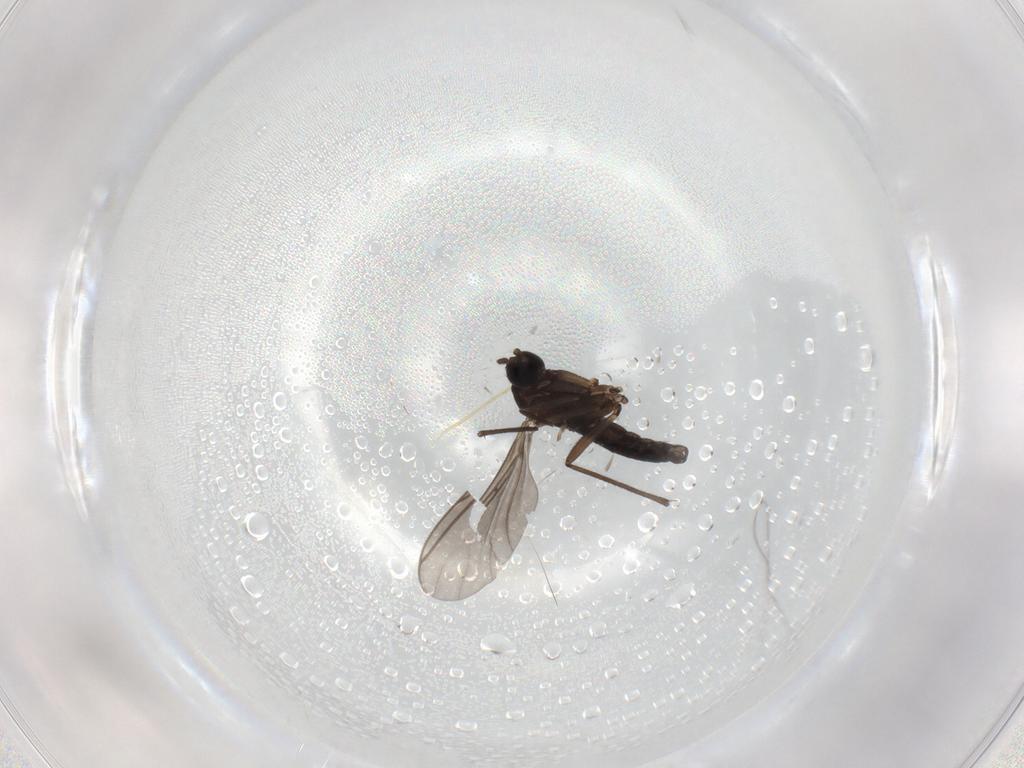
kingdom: Animalia
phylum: Arthropoda
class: Insecta
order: Diptera
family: Sciaridae
